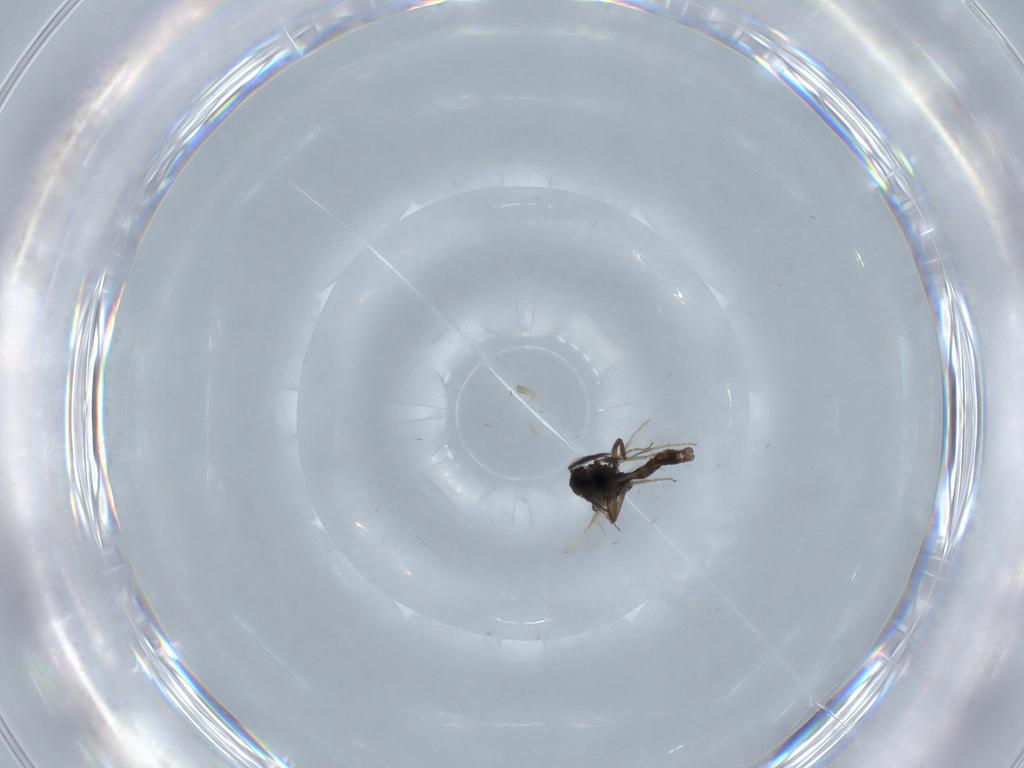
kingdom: Animalia
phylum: Arthropoda
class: Insecta
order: Diptera
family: Ceratopogonidae
